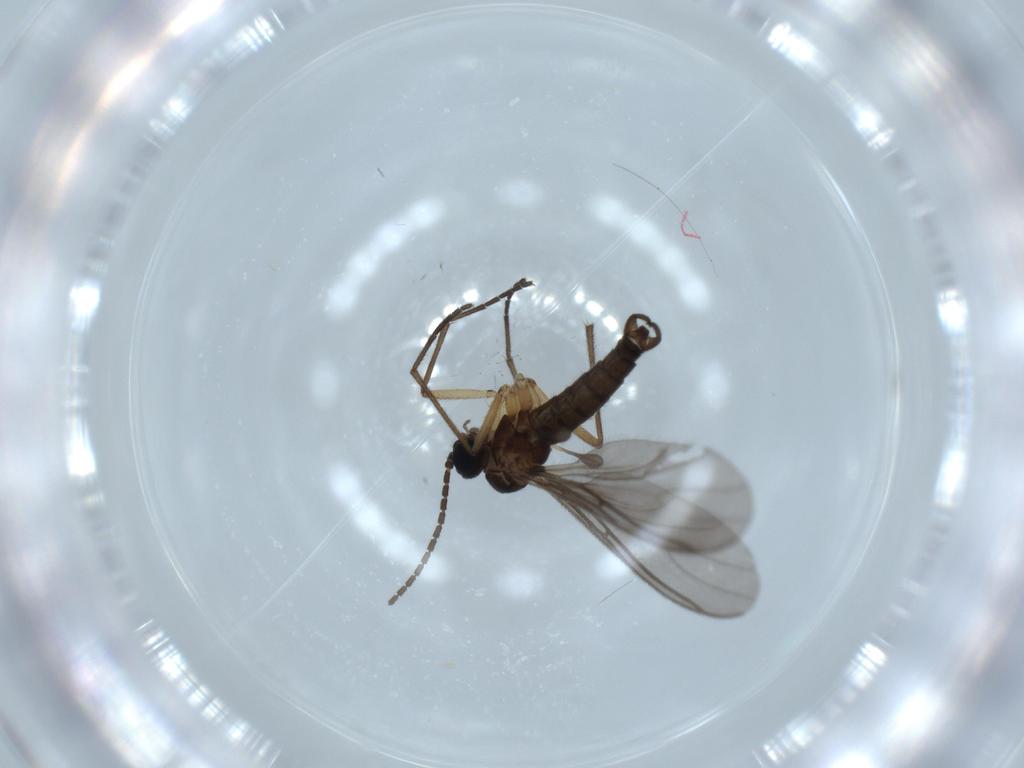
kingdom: Animalia
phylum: Arthropoda
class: Insecta
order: Diptera
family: Sciaridae
